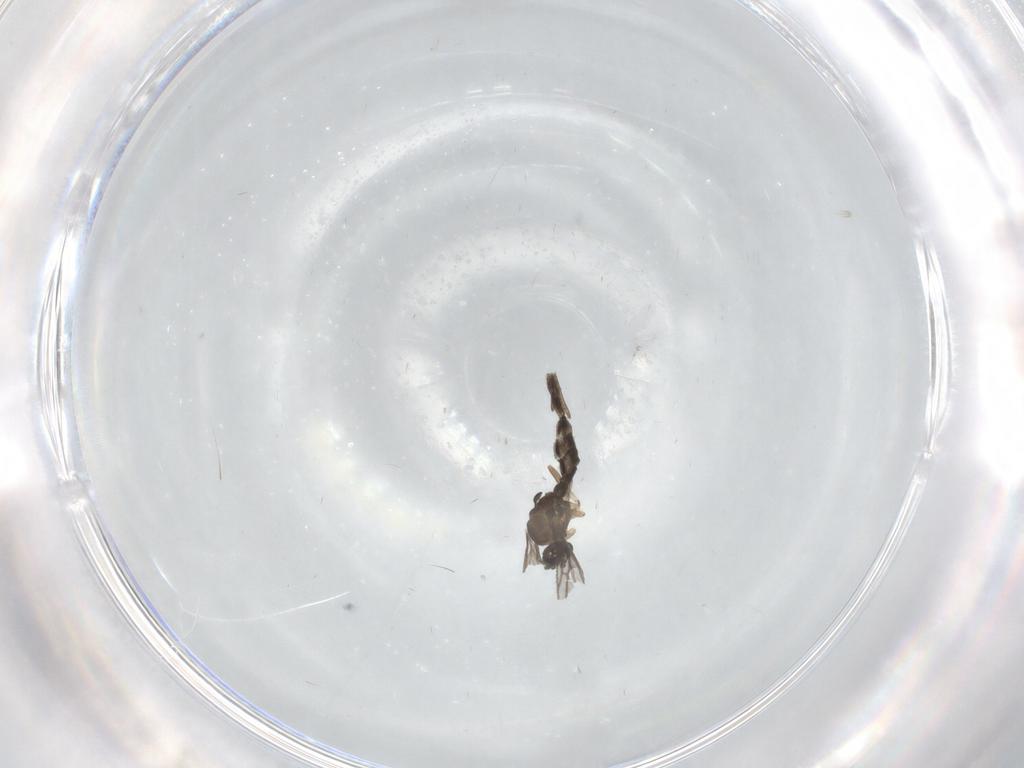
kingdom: Animalia
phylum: Arthropoda
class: Insecta
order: Diptera
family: Ceratopogonidae
